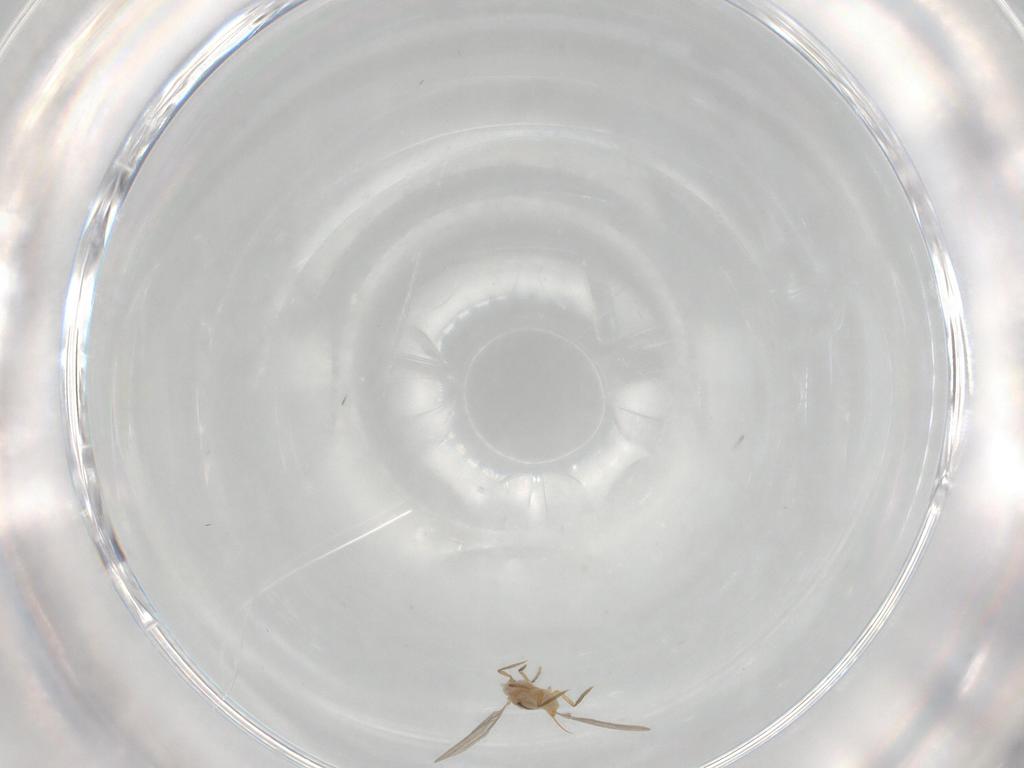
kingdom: Animalia
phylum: Arthropoda
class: Insecta
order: Hemiptera
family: Cicadellidae
